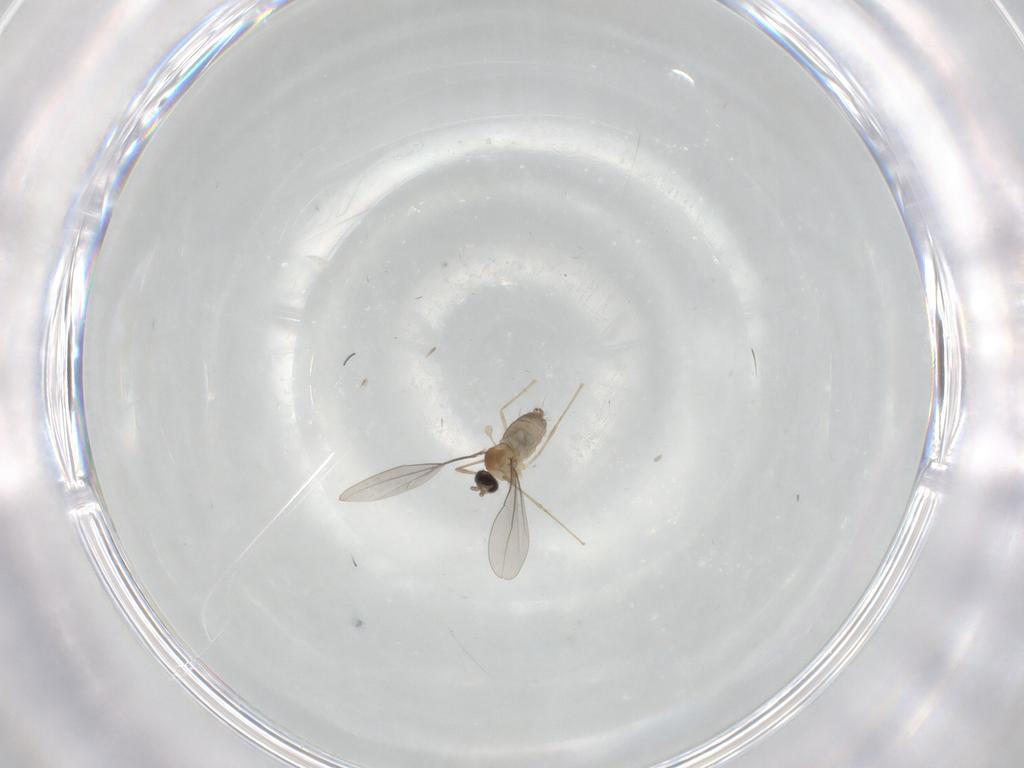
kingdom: Animalia
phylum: Arthropoda
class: Insecta
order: Diptera
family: Cecidomyiidae
